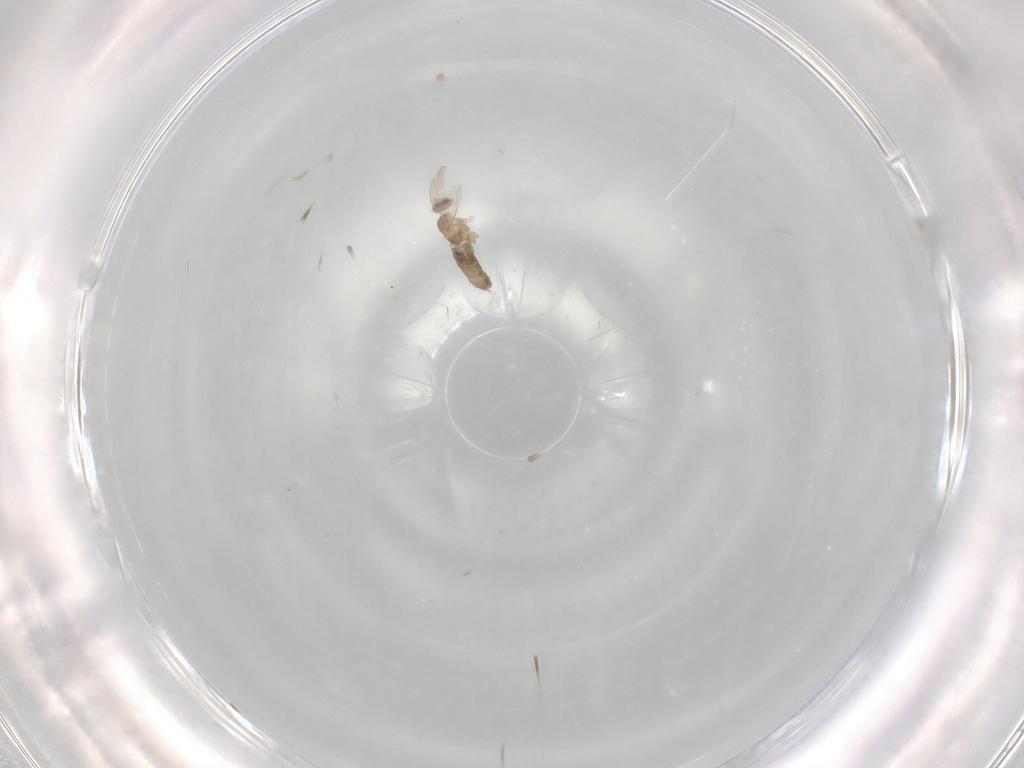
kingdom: Animalia
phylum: Arthropoda
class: Insecta
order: Diptera
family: Cecidomyiidae
